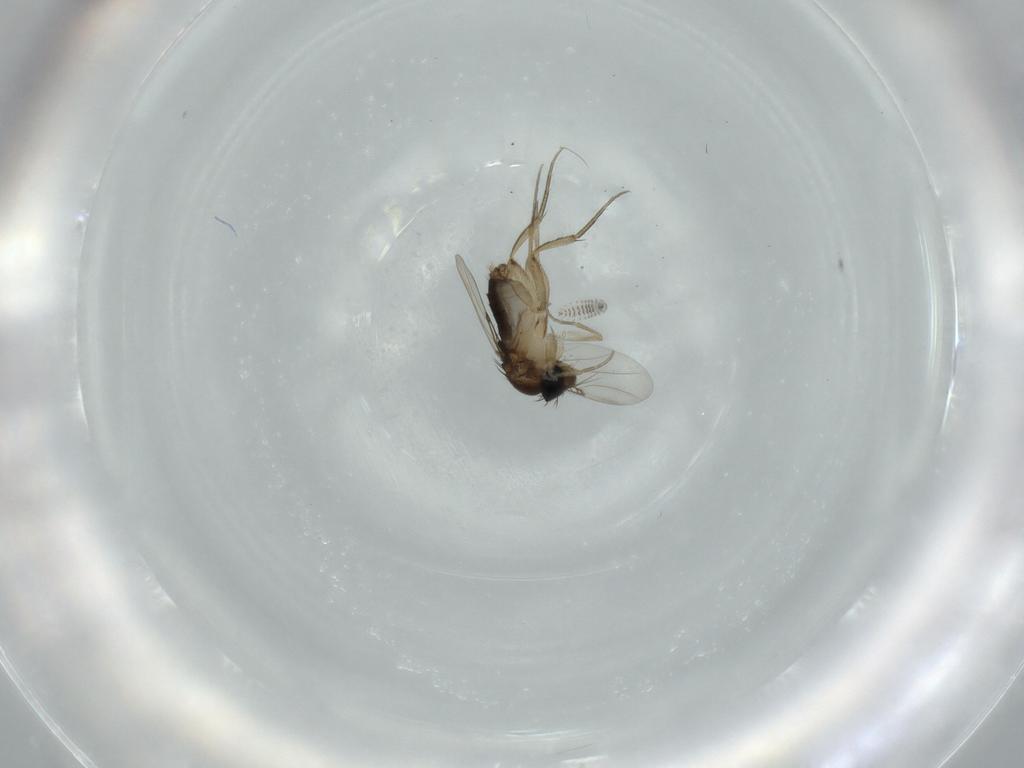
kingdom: Animalia
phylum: Arthropoda
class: Insecta
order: Diptera
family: Phoridae
